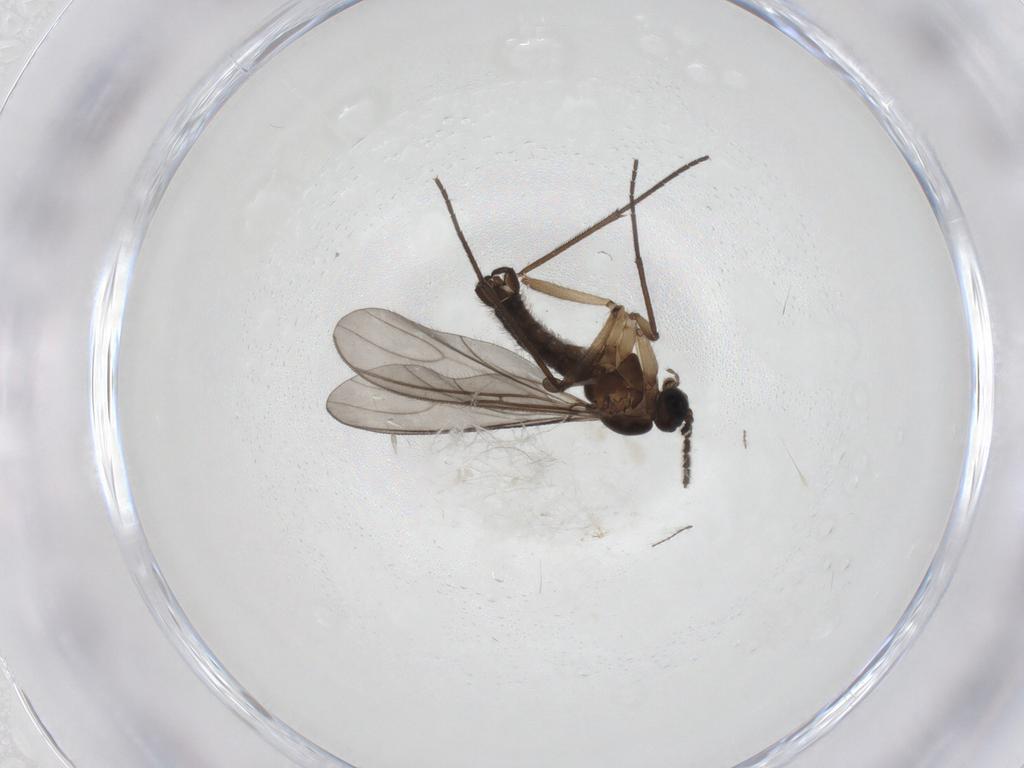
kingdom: Animalia
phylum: Arthropoda
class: Insecta
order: Diptera
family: Sciaridae
